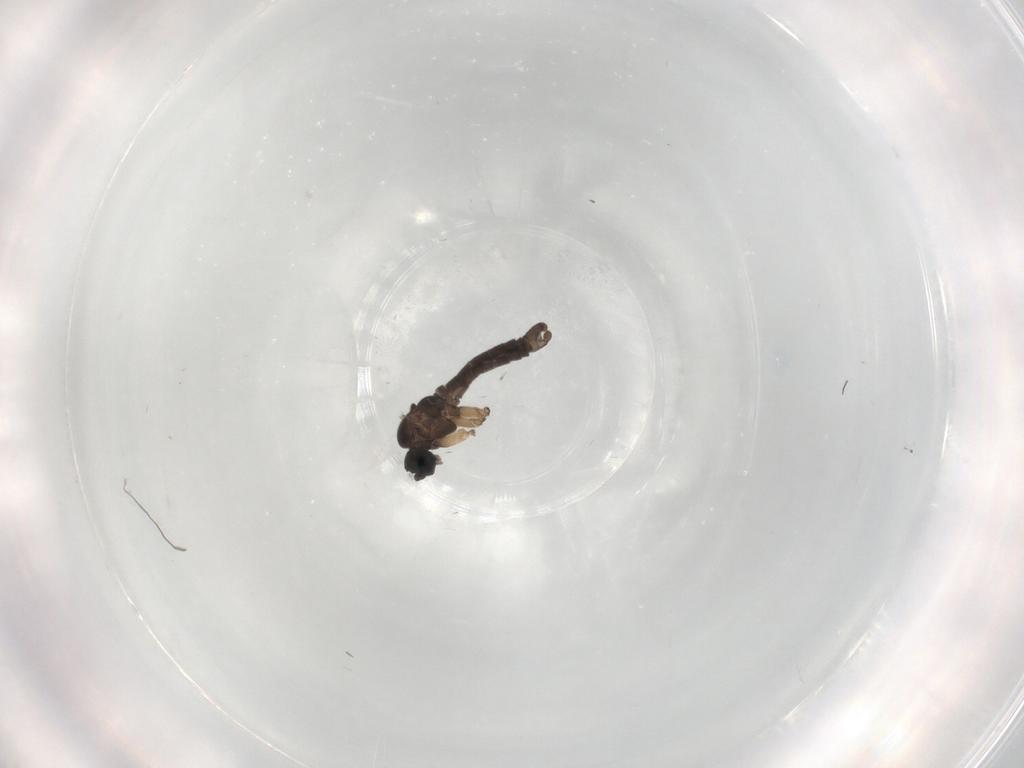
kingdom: Animalia
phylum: Arthropoda
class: Insecta
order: Diptera
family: Sciaridae
